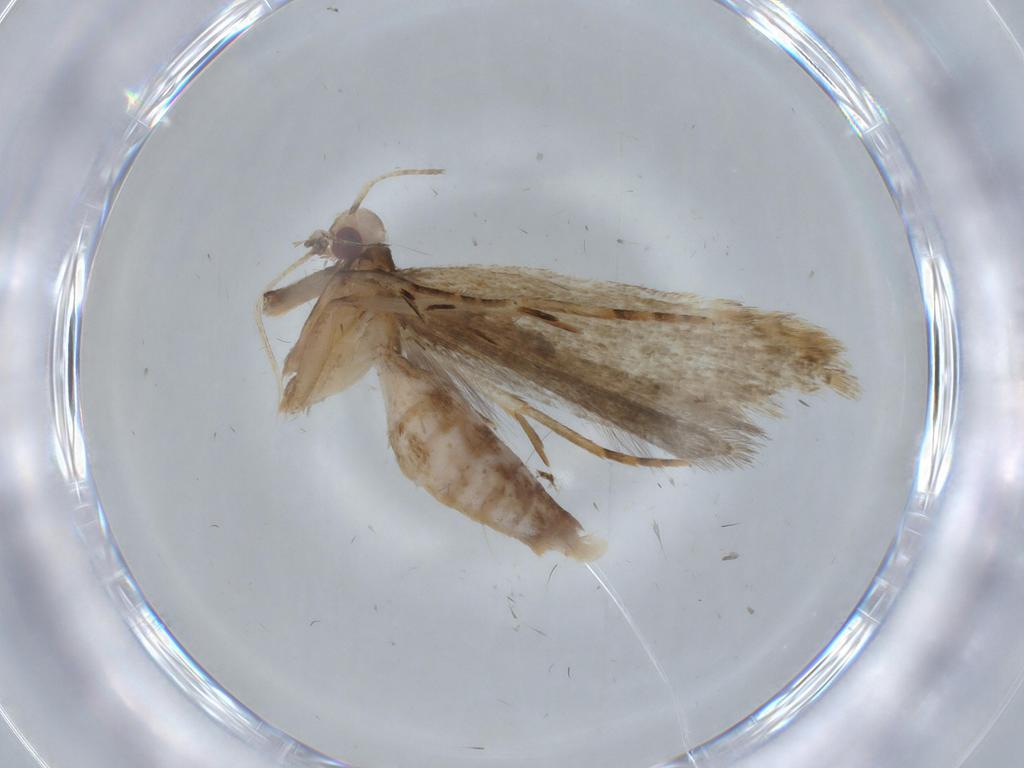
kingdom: Animalia
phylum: Arthropoda
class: Insecta
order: Lepidoptera
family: Gelechiidae
